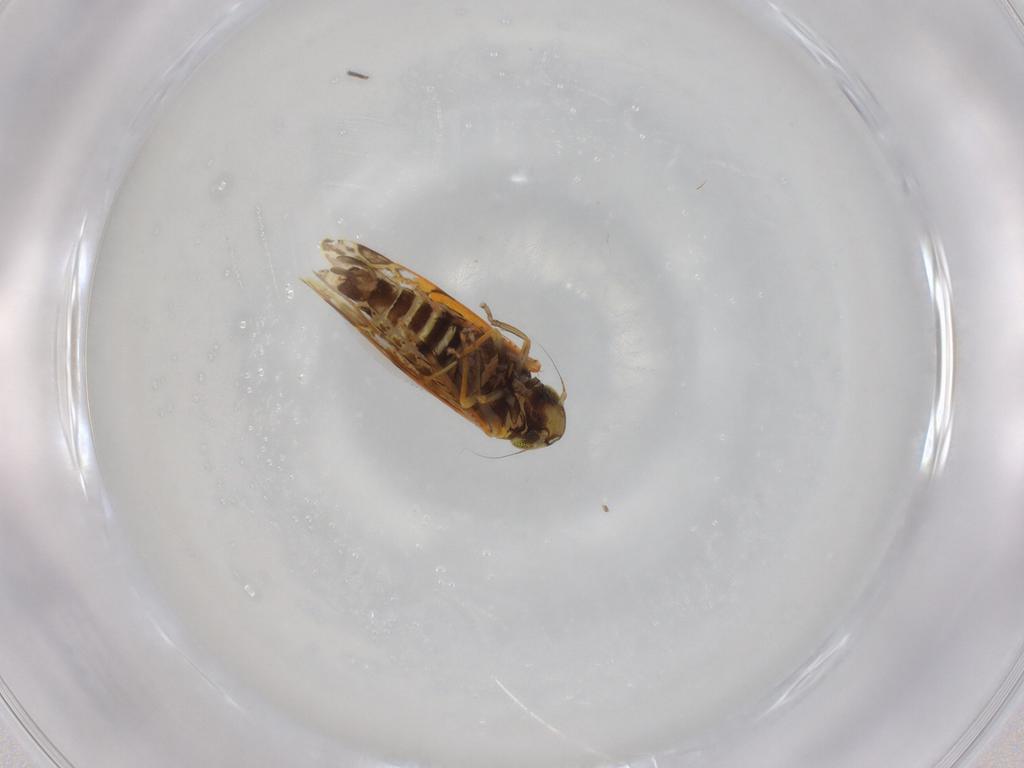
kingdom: Animalia
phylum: Arthropoda
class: Insecta
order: Hemiptera
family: Cicadellidae
